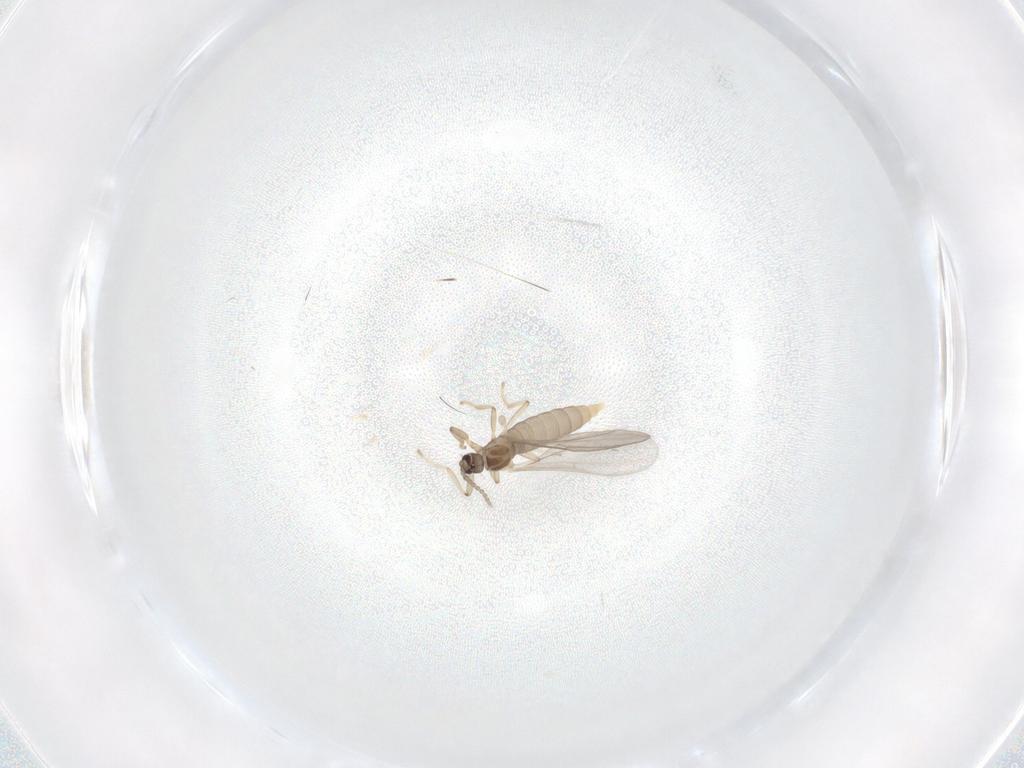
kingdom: Animalia
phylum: Arthropoda
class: Insecta
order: Diptera
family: Cecidomyiidae
